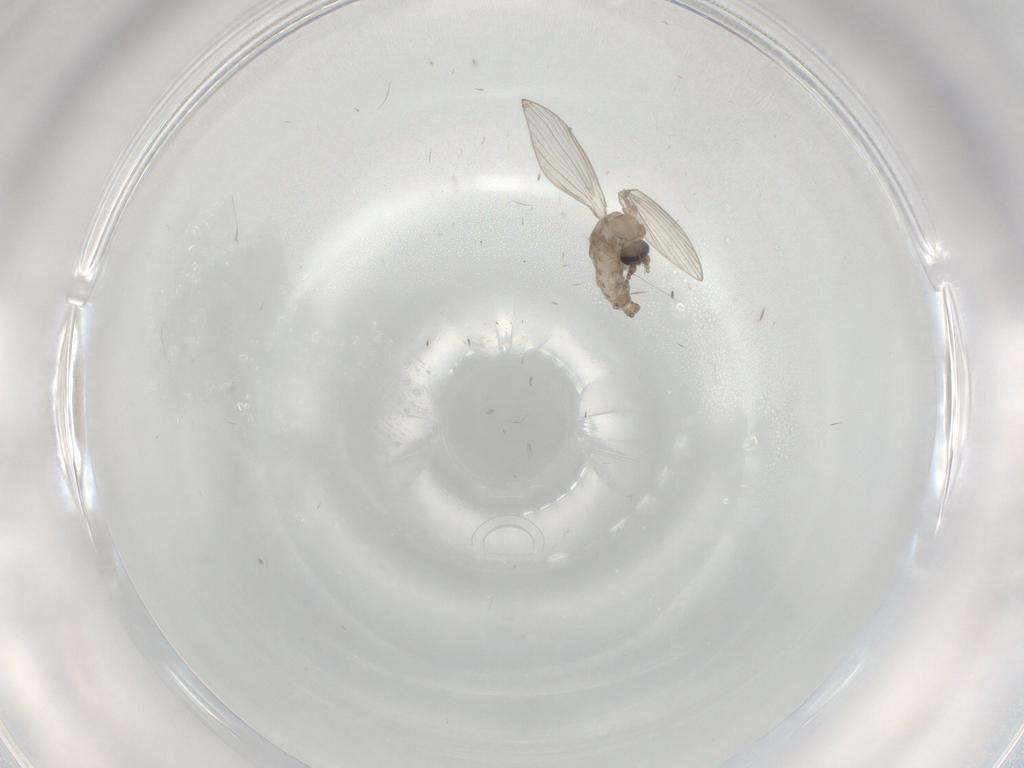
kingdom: Animalia
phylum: Arthropoda
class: Insecta
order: Diptera
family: Psychodidae
